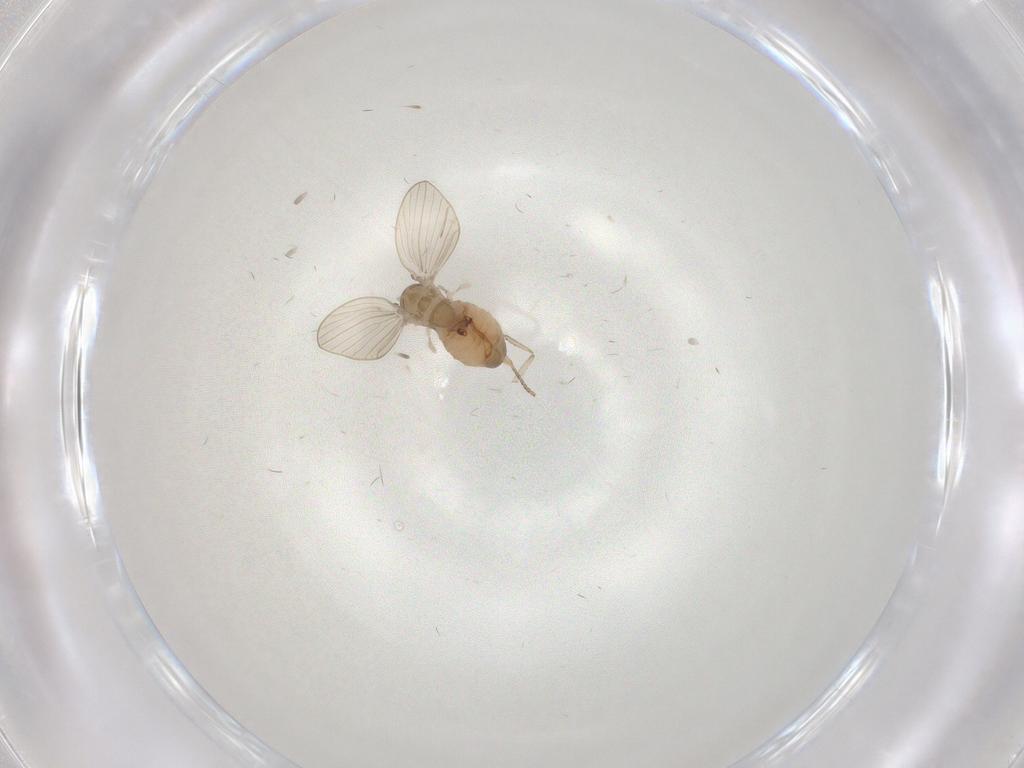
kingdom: Animalia
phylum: Arthropoda
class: Insecta
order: Diptera
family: Psychodidae
